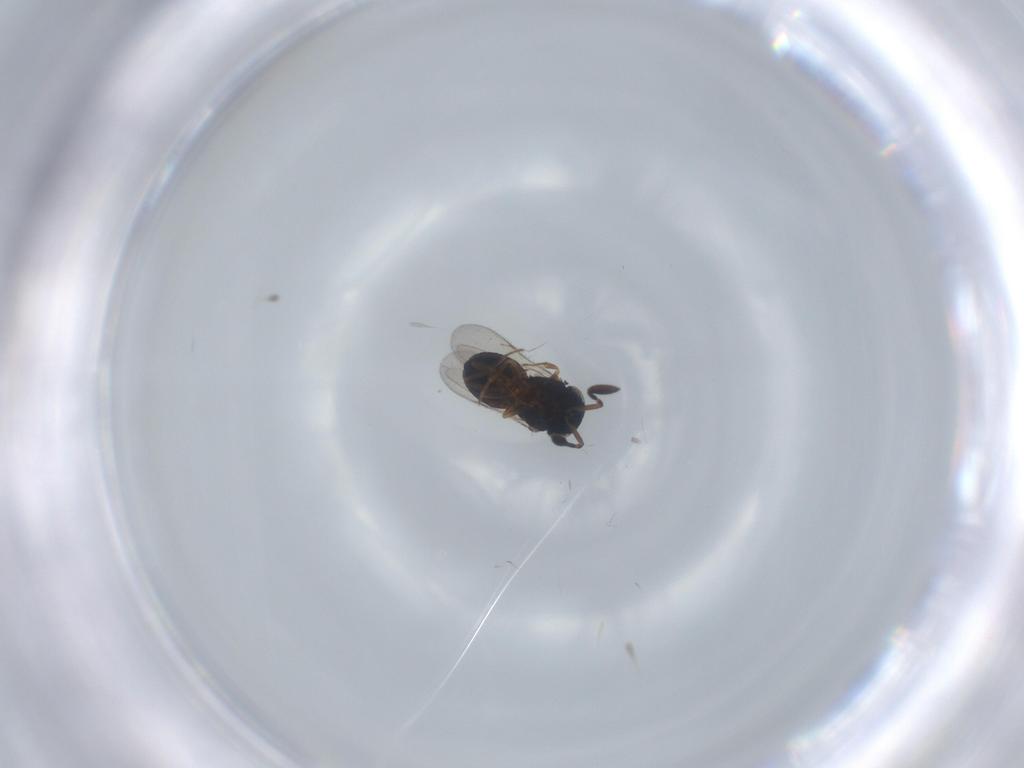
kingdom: Animalia
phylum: Arthropoda
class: Insecta
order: Coleoptera
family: Curculionidae
